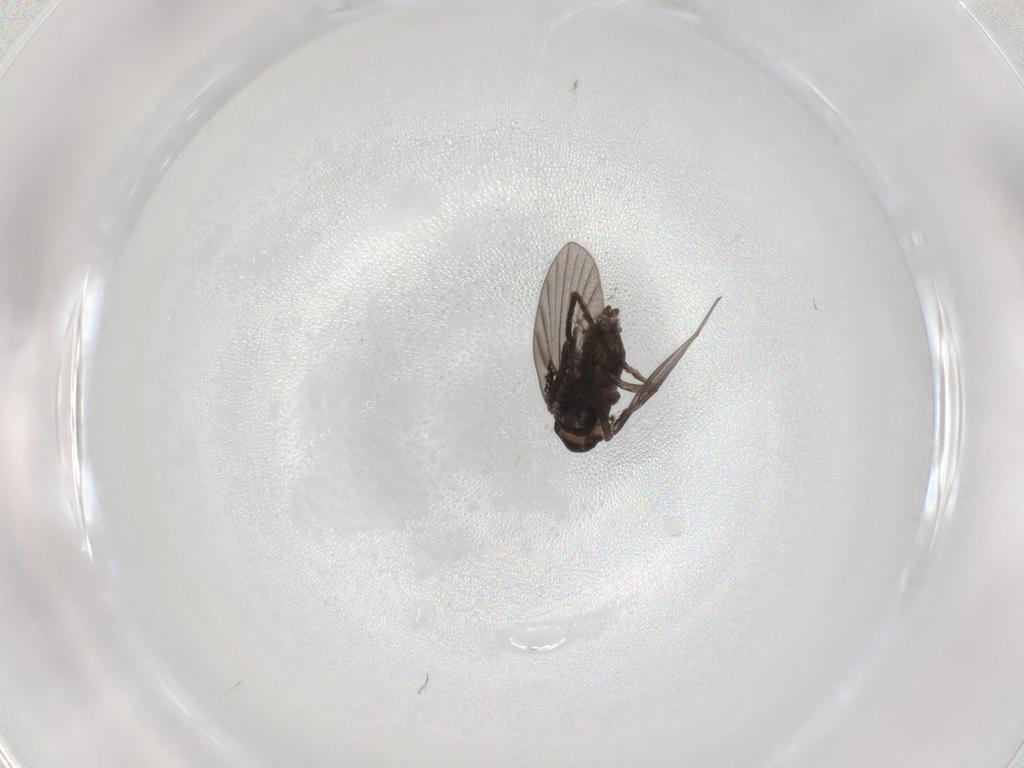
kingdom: Animalia
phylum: Arthropoda
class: Insecta
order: Diptera
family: Psychodidae
